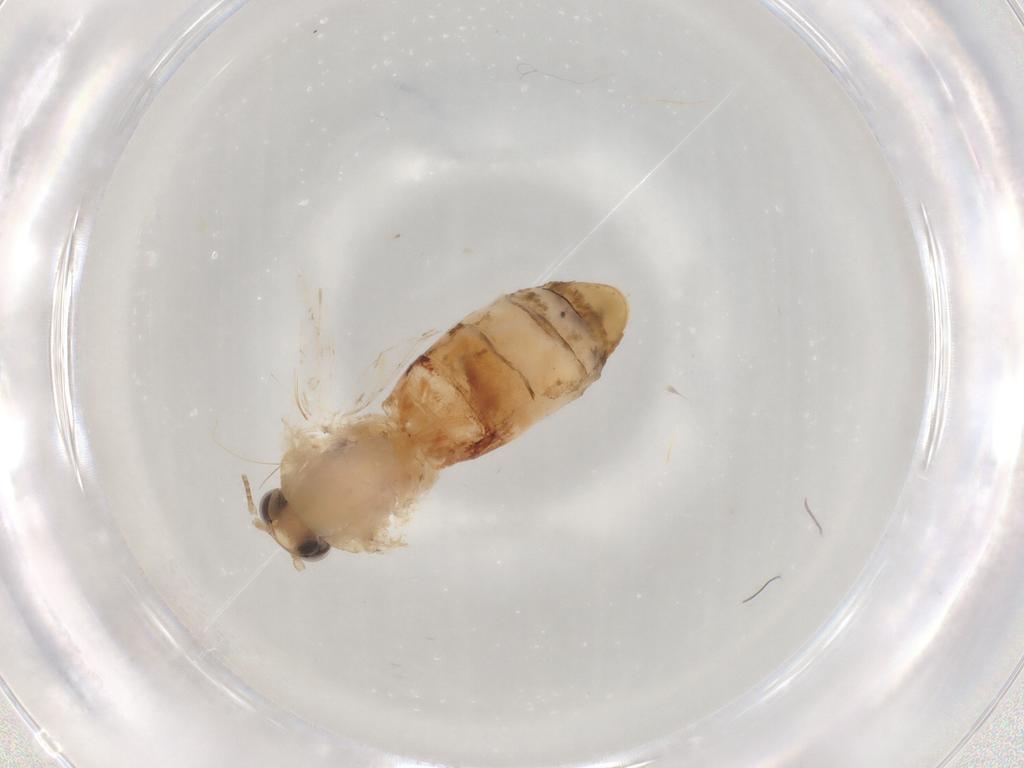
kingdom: Animalia
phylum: Arthropoda
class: Insecta
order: Lepidoptera
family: Erebidae
